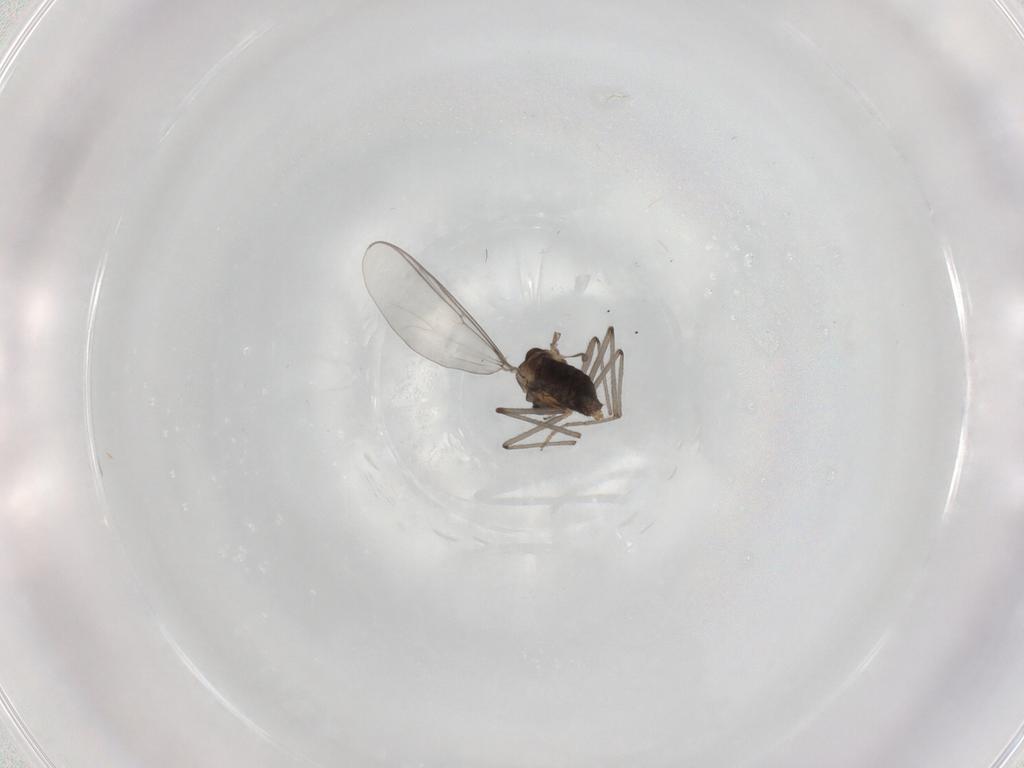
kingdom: Animalia
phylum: Arthropoda
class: Insecta
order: Diptera
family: Chironomidae
